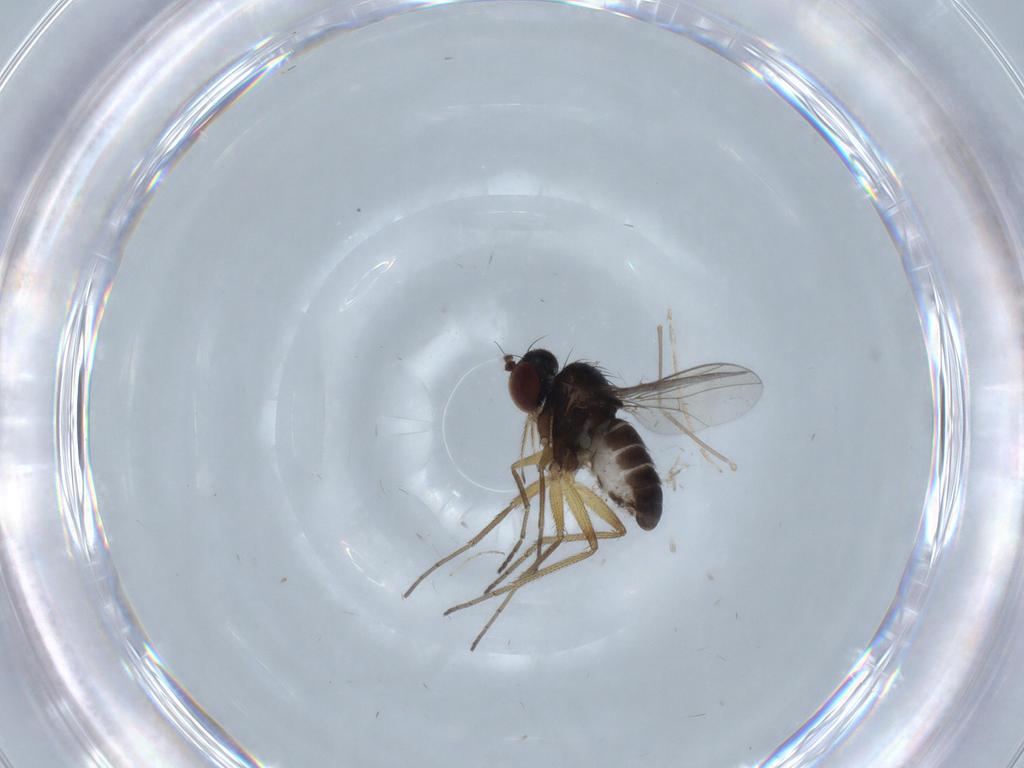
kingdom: Animalia
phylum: Arthropoda
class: Insecta
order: Diptera
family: Dolichopodidae
